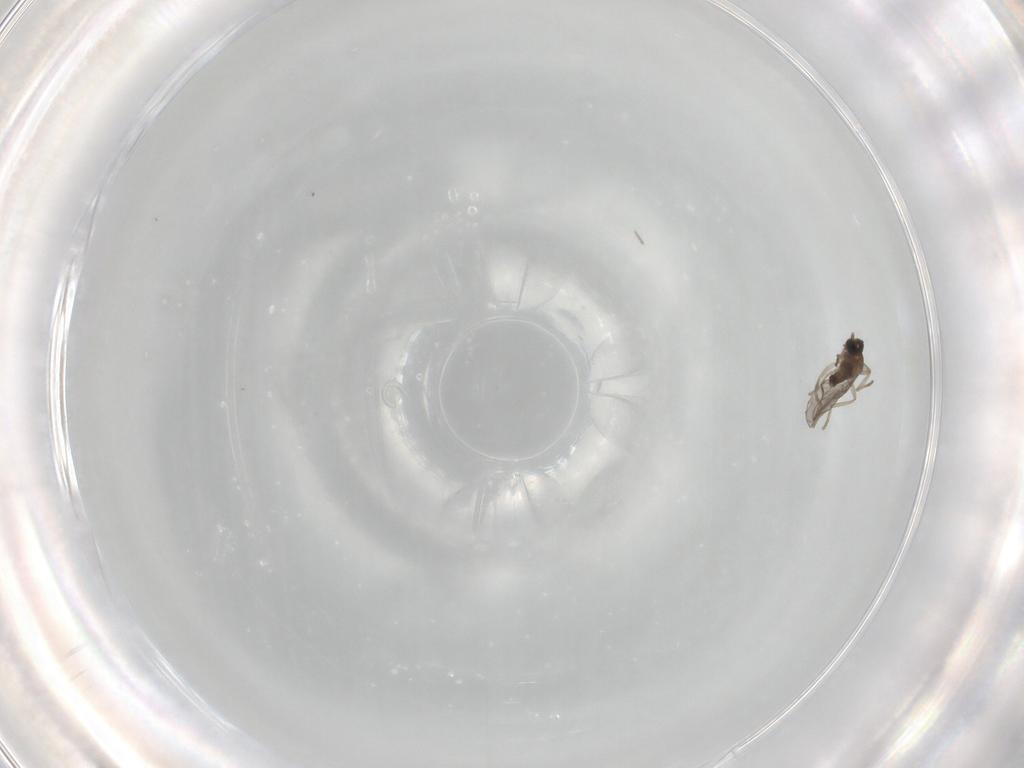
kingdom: Animalia
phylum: Arthropoda
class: Insecta
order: Diptera
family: Cecidomyiidae
